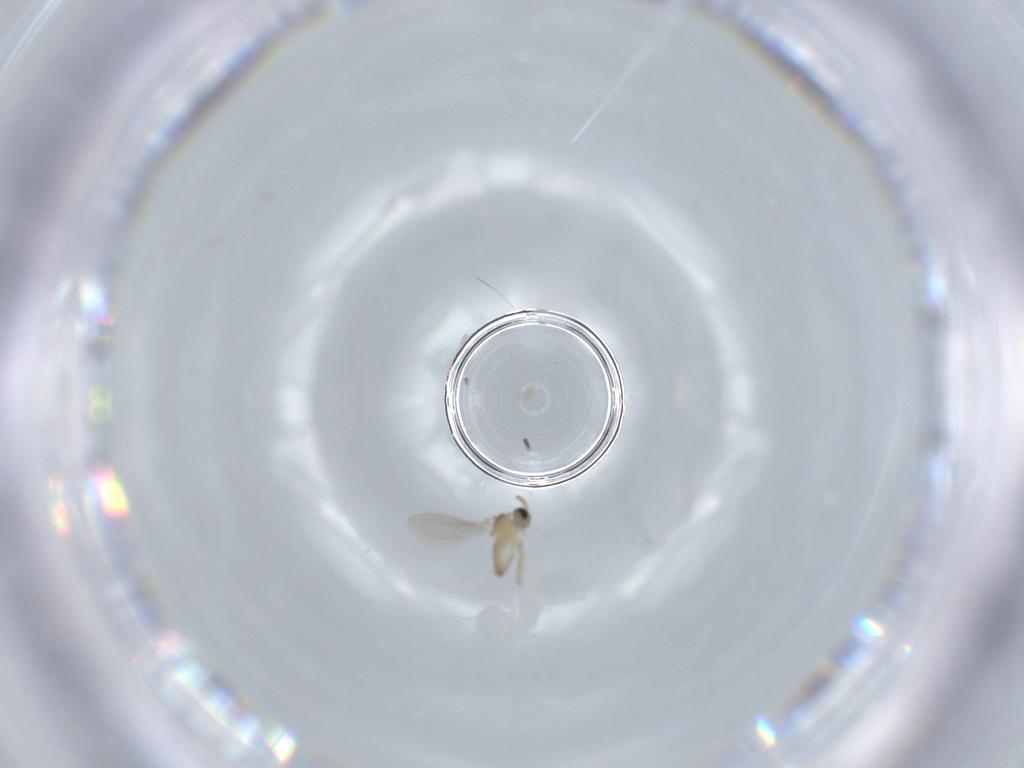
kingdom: Animalia
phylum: Arthropoda
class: Insecta
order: Diptera
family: Cecidomyiidae
